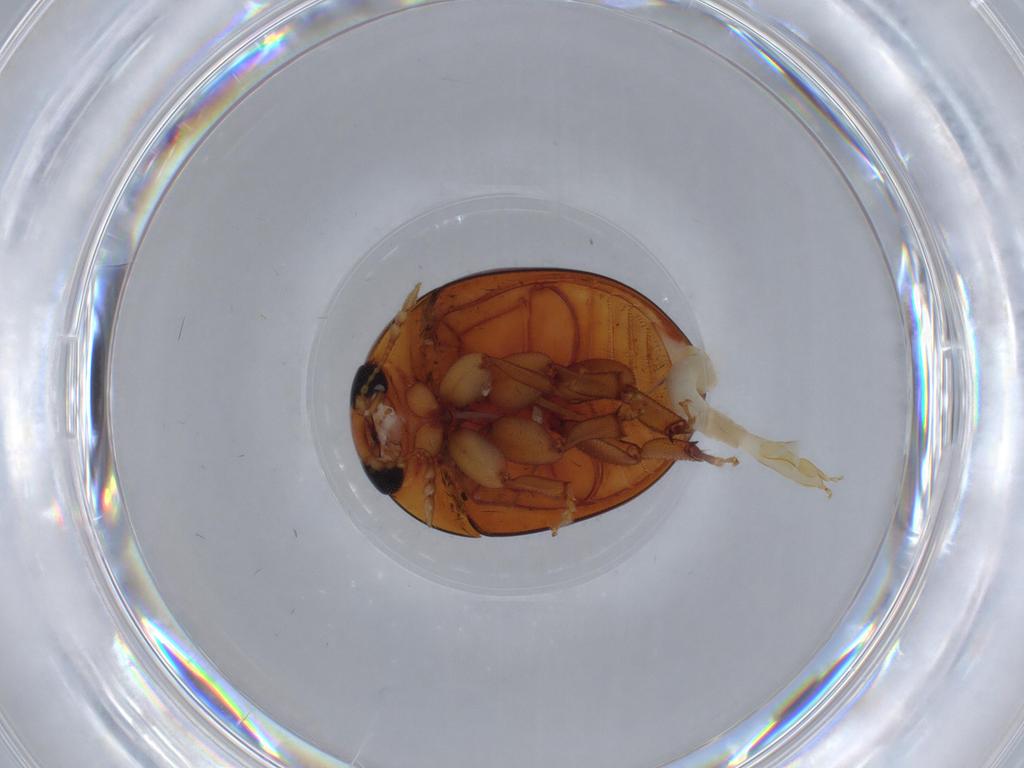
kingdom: Animalia
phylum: Arthropoda
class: Insecta
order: Coleoptera
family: Phalacridae
